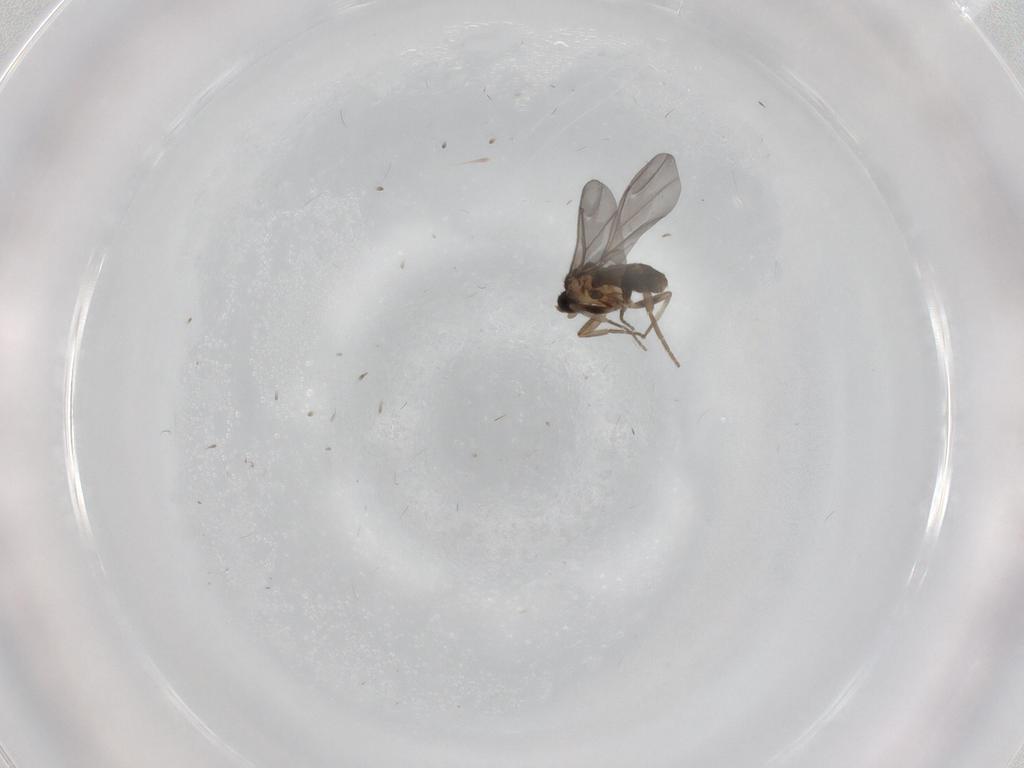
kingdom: Animalia
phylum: Arthropoda
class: Insecta
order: Diptera
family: Phoridae
